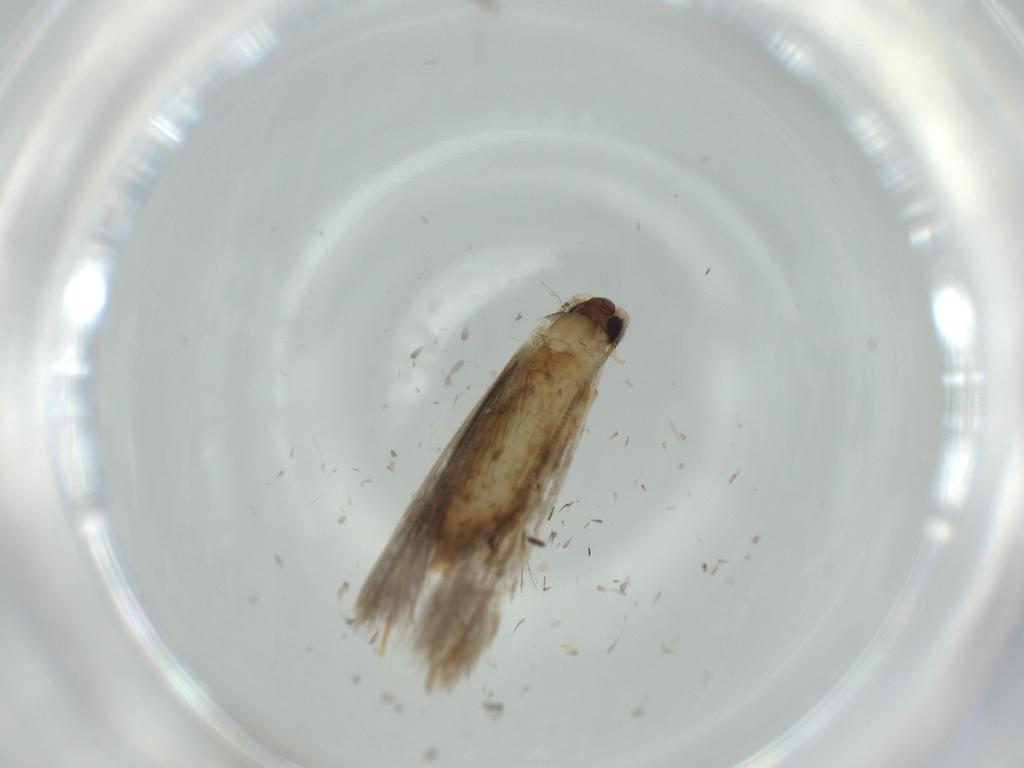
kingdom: Animalia
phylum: Arthropoda
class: Insecta
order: Lepidoptera
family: Tineidae
